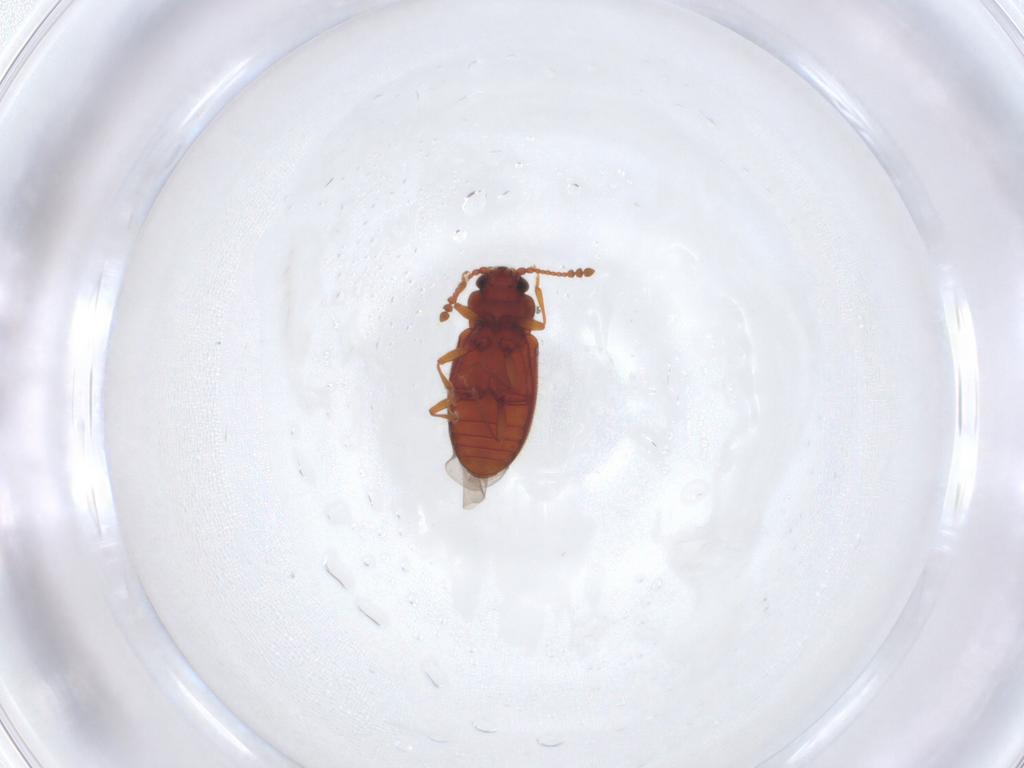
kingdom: Animalia
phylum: Arthropoda
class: Insecta
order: Coleoptera
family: Cryptophagidae
